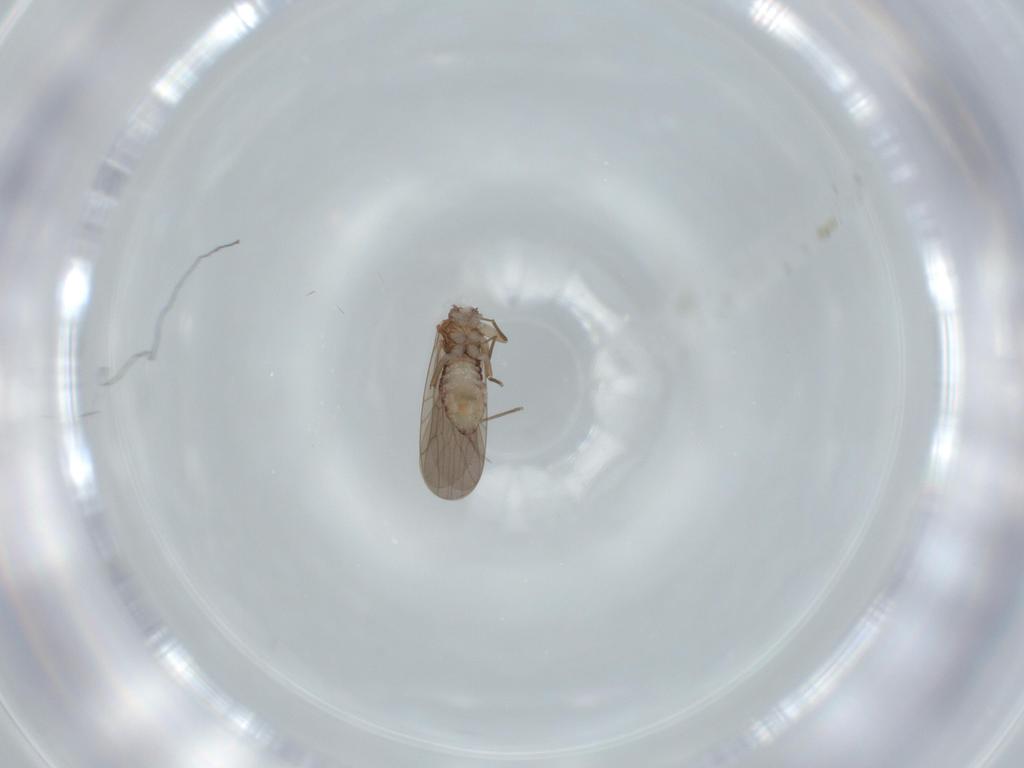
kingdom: Animalia
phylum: Arthropoda
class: Insecta
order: Psocodea
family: Lepidopsocidae
